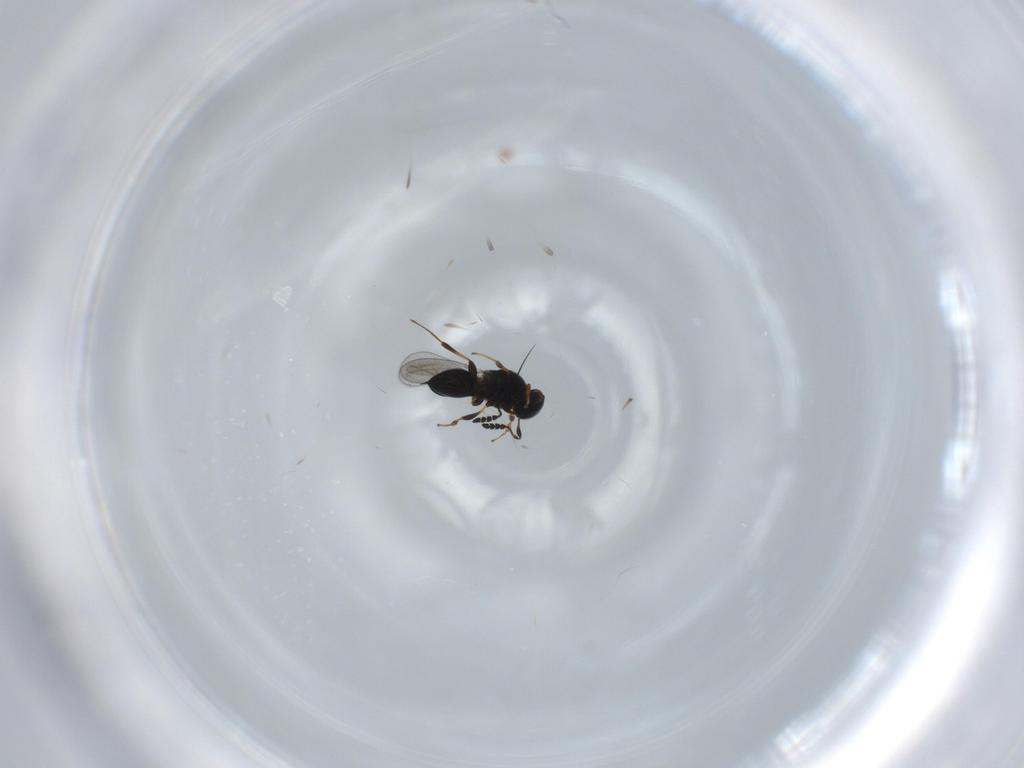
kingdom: Animalia
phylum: Arthropoda
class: Insecta
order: Hymenoptera
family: Platygastridae
